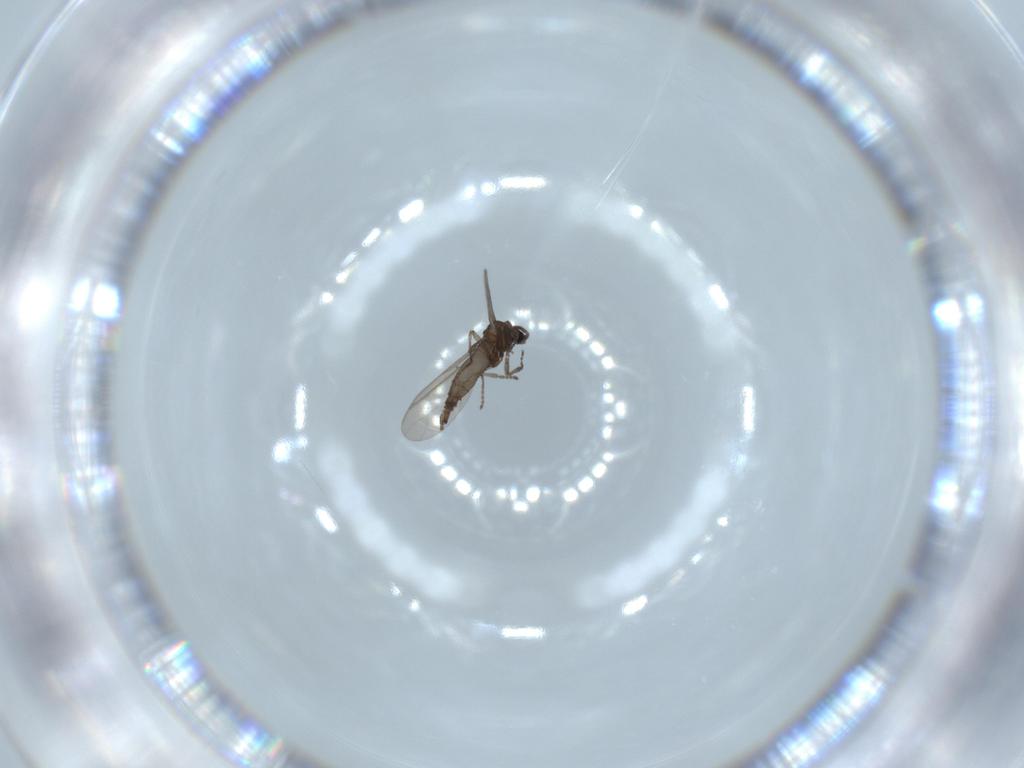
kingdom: Animalia
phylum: Arthropoda
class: Insecta
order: Diptera
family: Sciaridae
